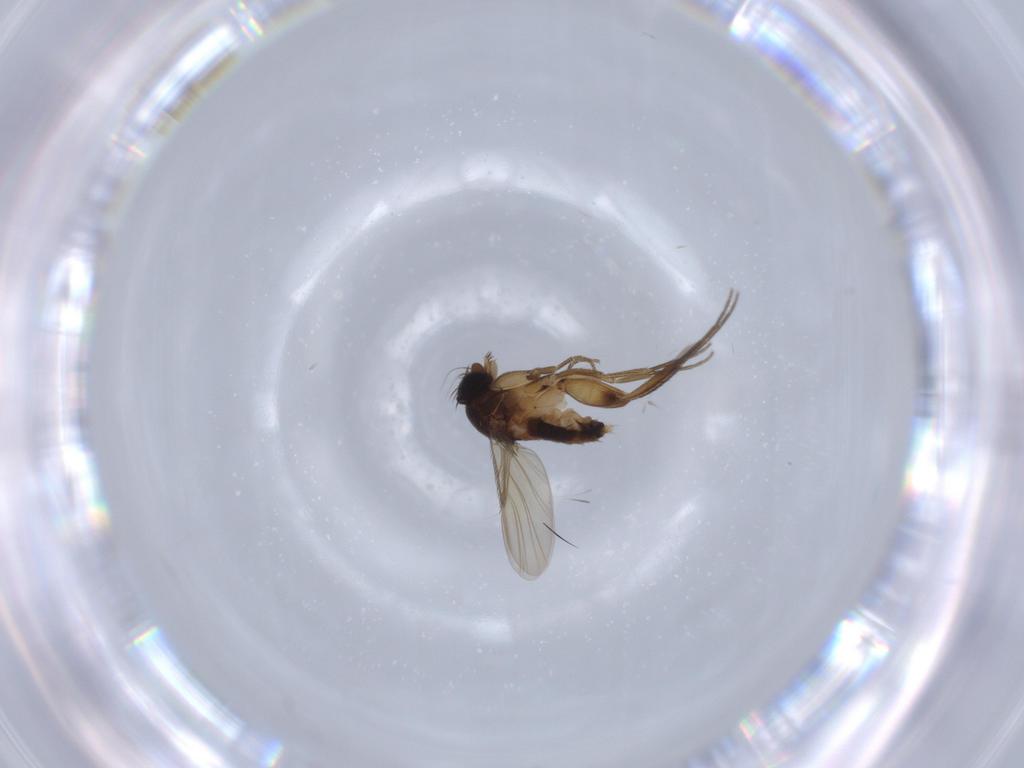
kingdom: Animalia
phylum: Arthropoda
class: Insecta
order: Diptera
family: Phoridae
